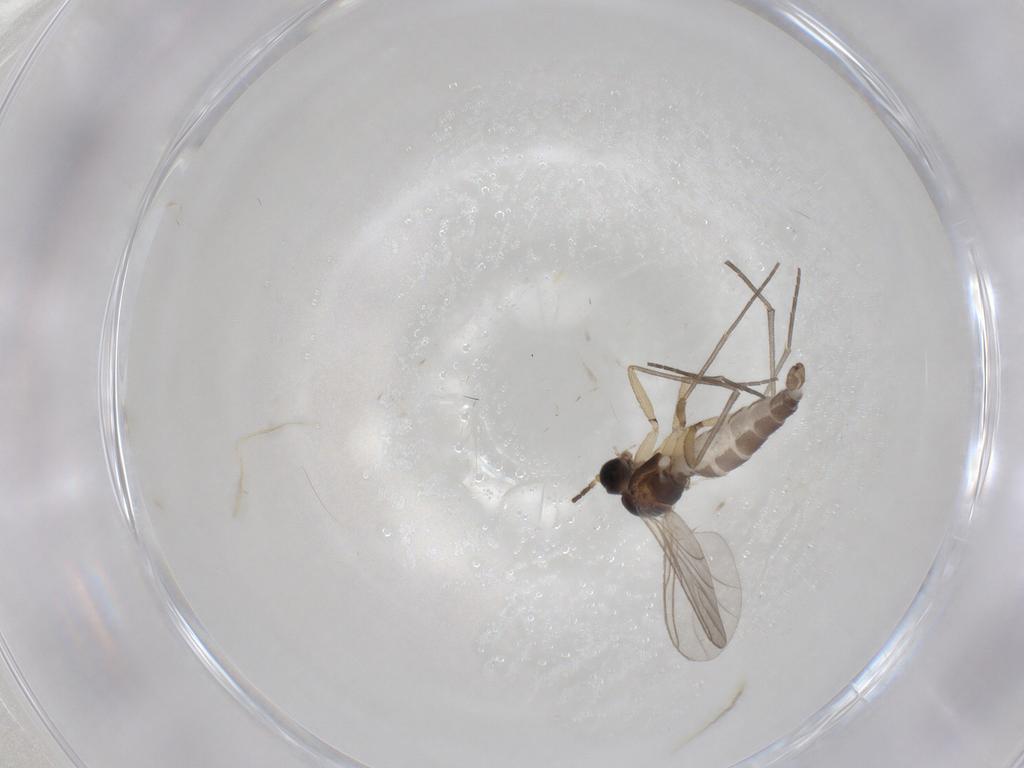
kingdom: Animalia
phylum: Arthropoda
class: Insecta
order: Diptera
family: Sciaridae
